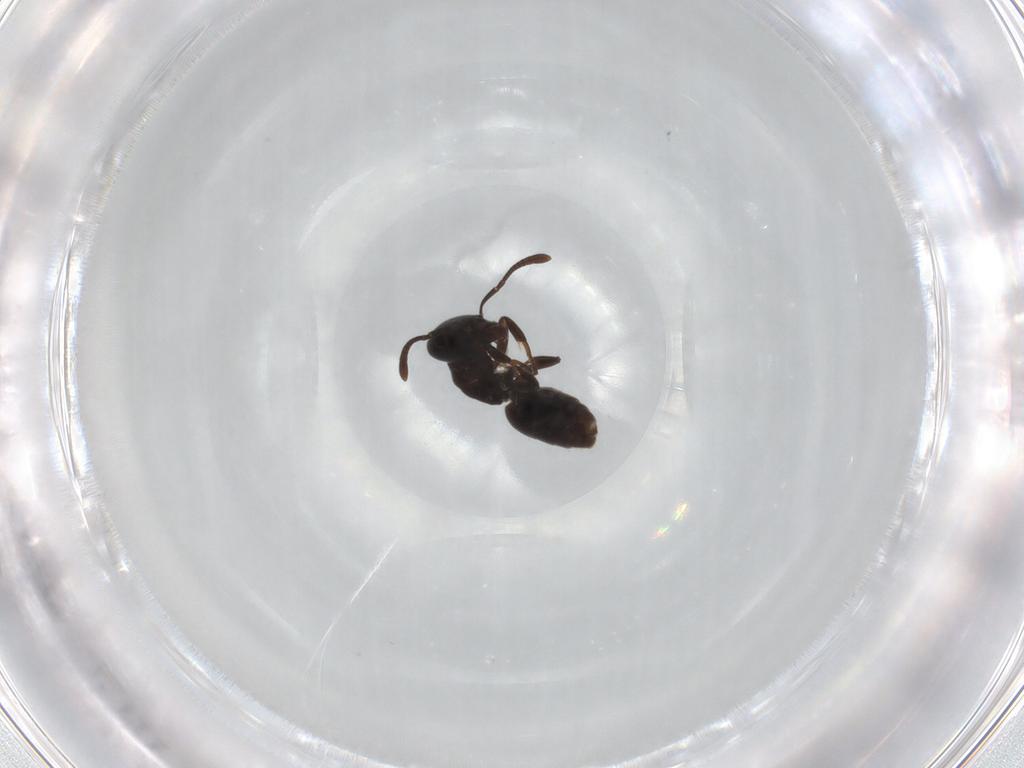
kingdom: Animalia
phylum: Arthropoda
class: Insecta
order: Hymenoptera
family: Formicidae
